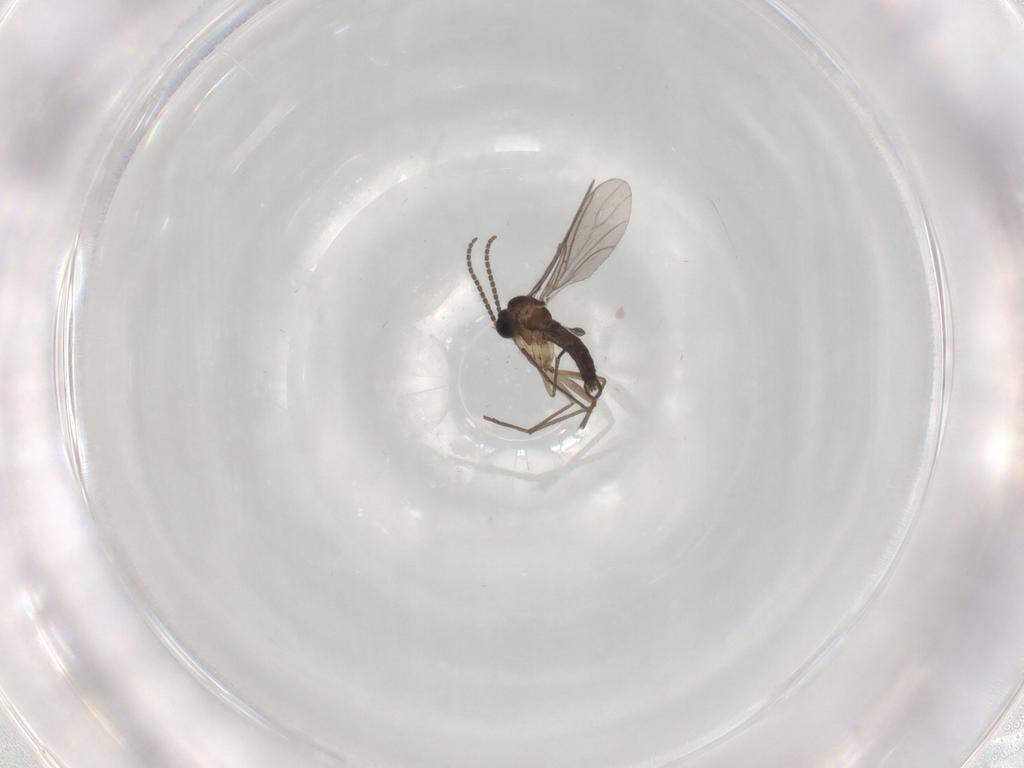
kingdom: Animalia
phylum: Arthropoda
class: Insecta
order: Diptera
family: Sciaridae
